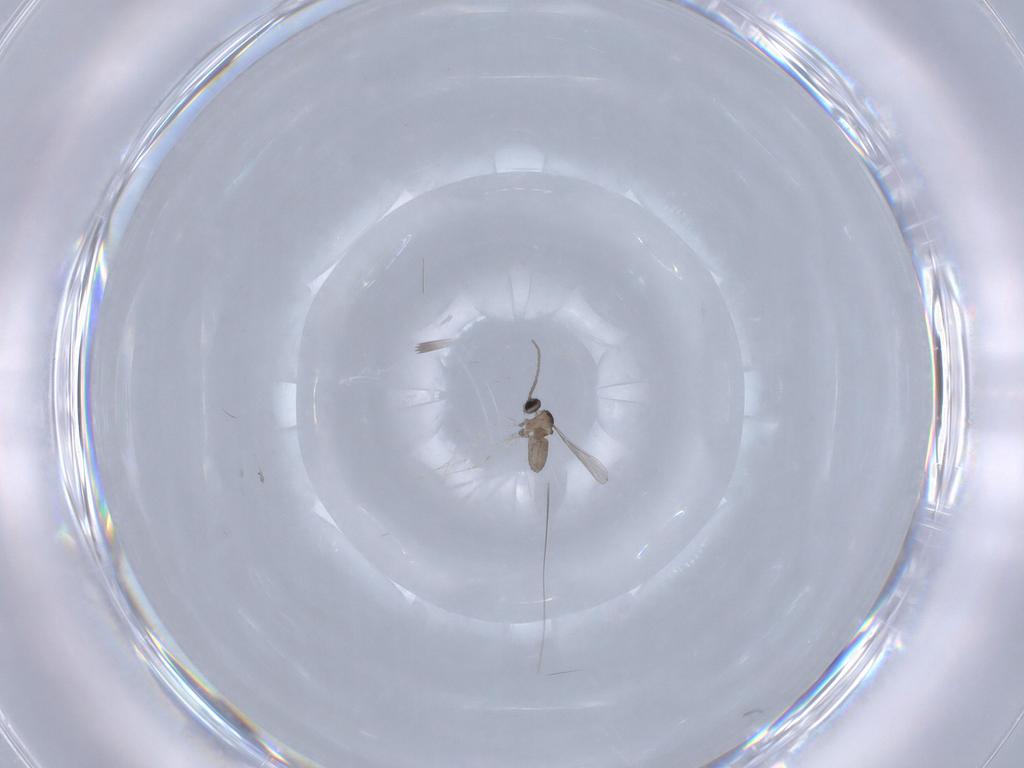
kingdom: Animalia
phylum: Arthropoda
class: Insecta
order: Diptera
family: Cecidomyiidae
